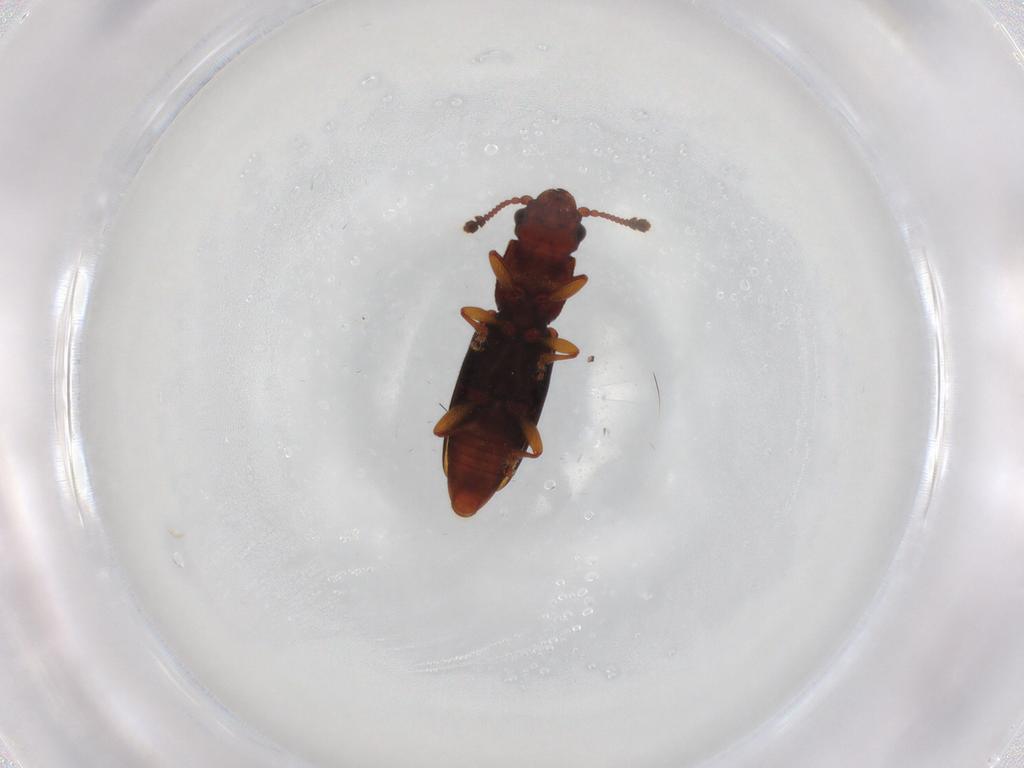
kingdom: Animalia
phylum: Arthropoda
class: Insecta
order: Coleoptera
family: Monotomidae
